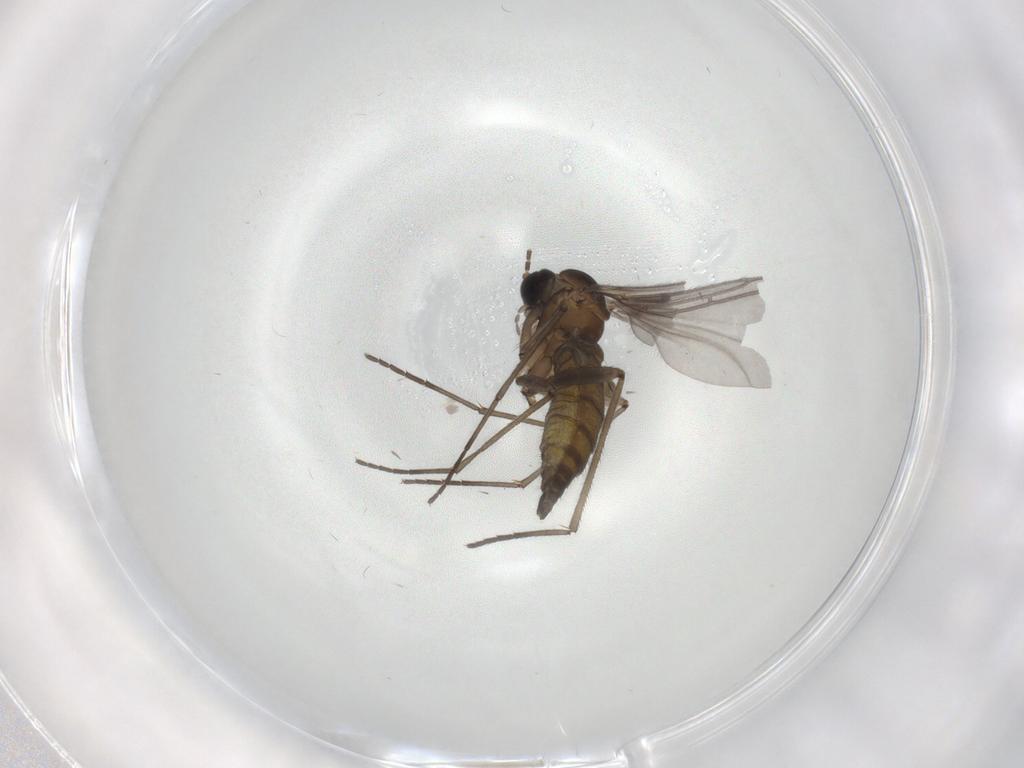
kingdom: Animalia
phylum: Arthropoda
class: Insecta
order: Diptera
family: Sciaridae
